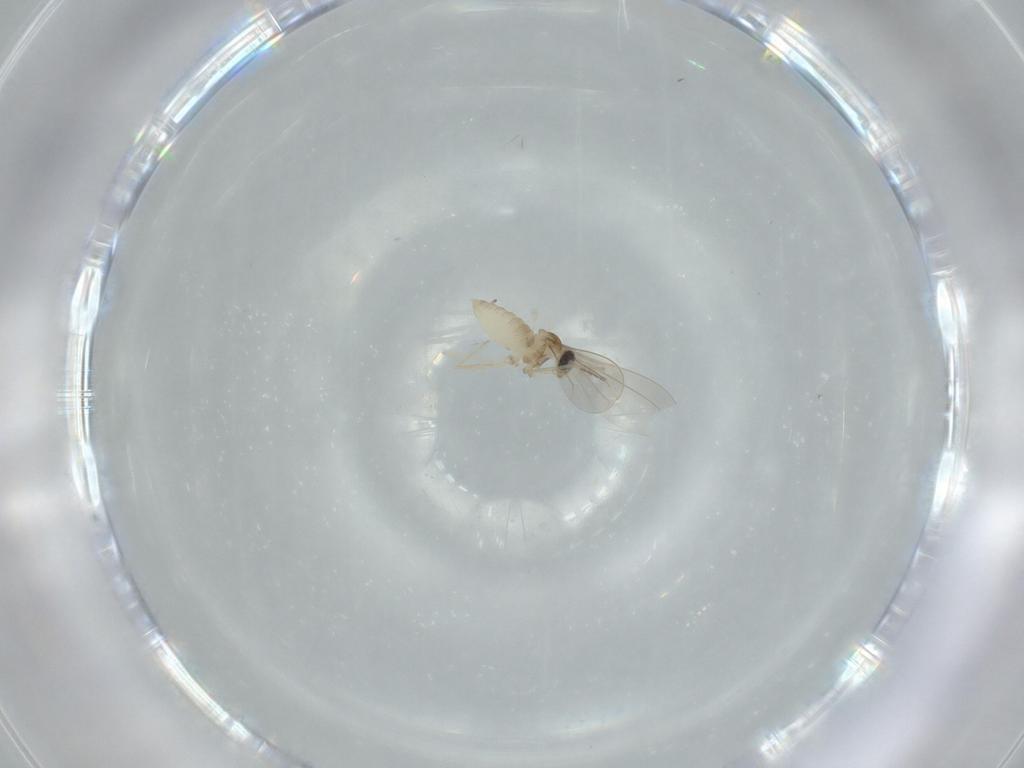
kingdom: Animalia
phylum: Arthropoda
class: Insecta
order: Diptera
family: Cecidomyiidae
